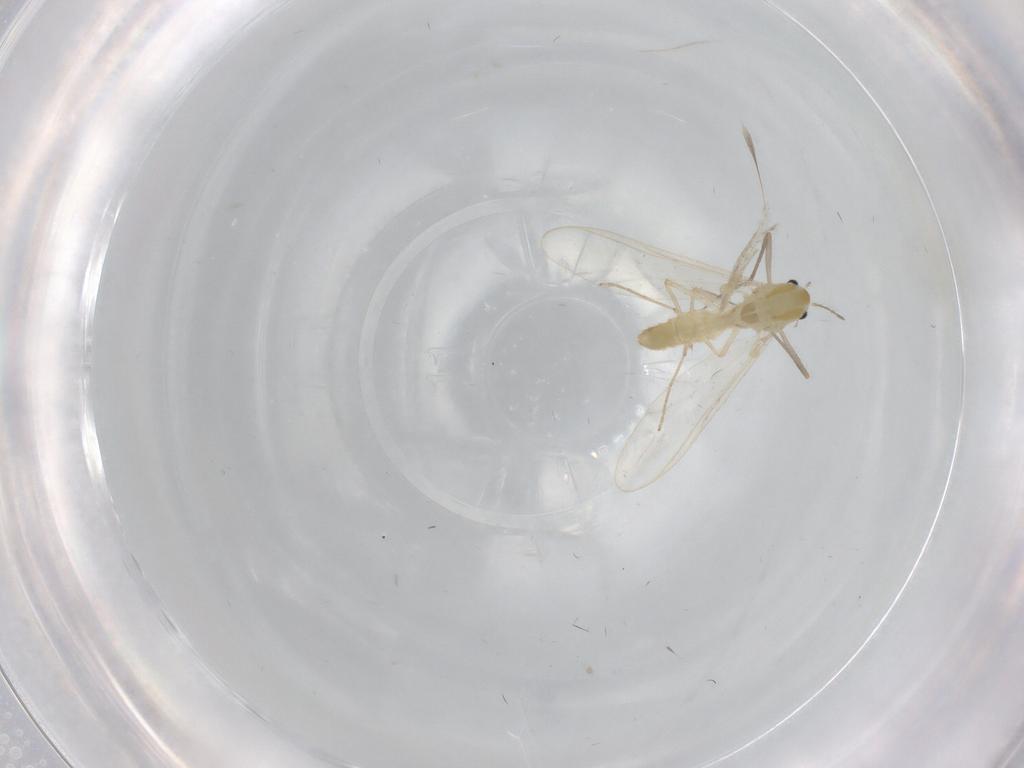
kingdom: Animalia
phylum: Arthropoda
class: Insecta
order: Diptera
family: Chironomidae
